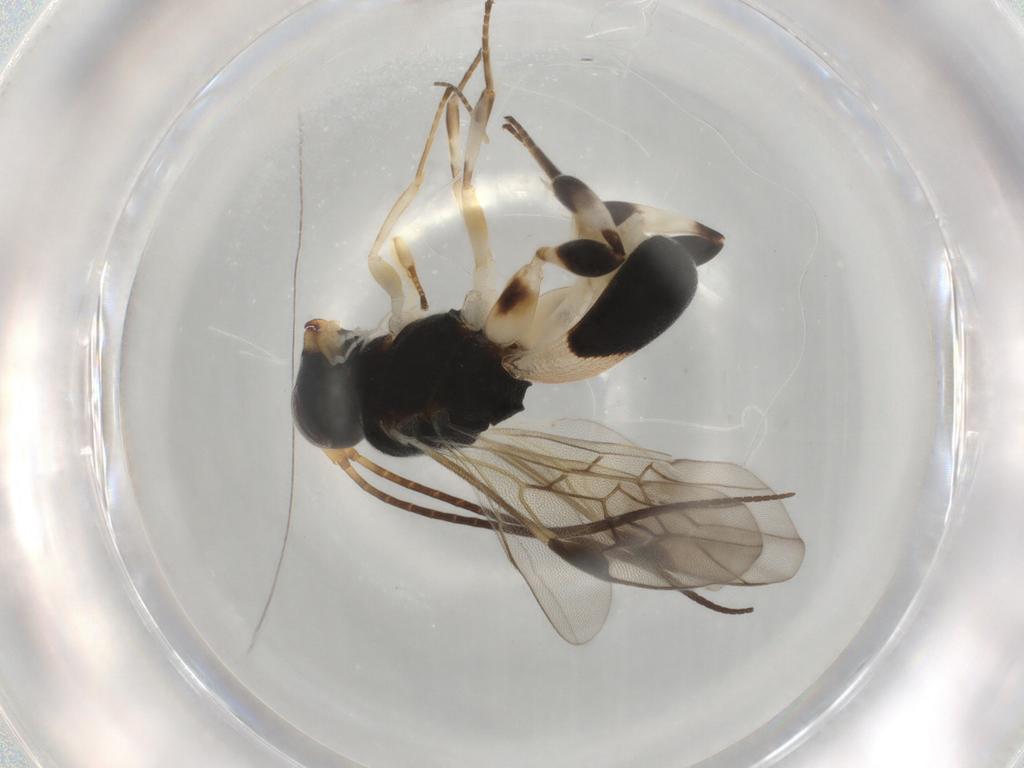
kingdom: Animalia
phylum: Arthropoda
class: Insecta
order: Hymenoptera
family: Braconidae
